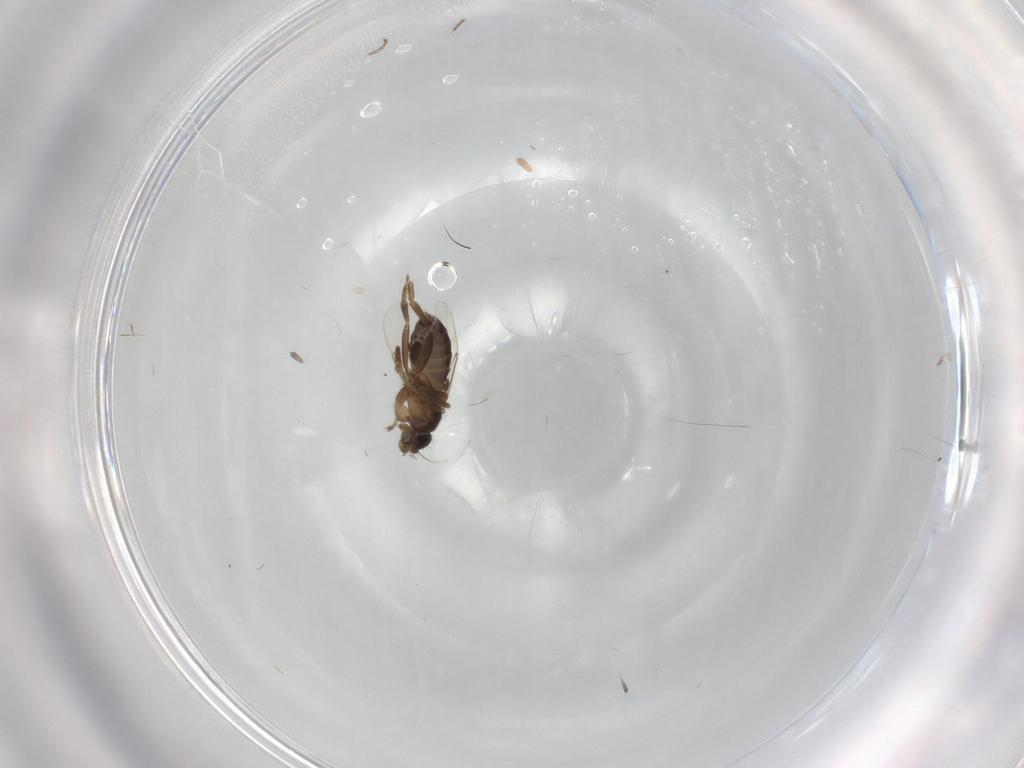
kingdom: Animalia
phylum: Arthropoda
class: Insecta
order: Diptera
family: Phoridae
